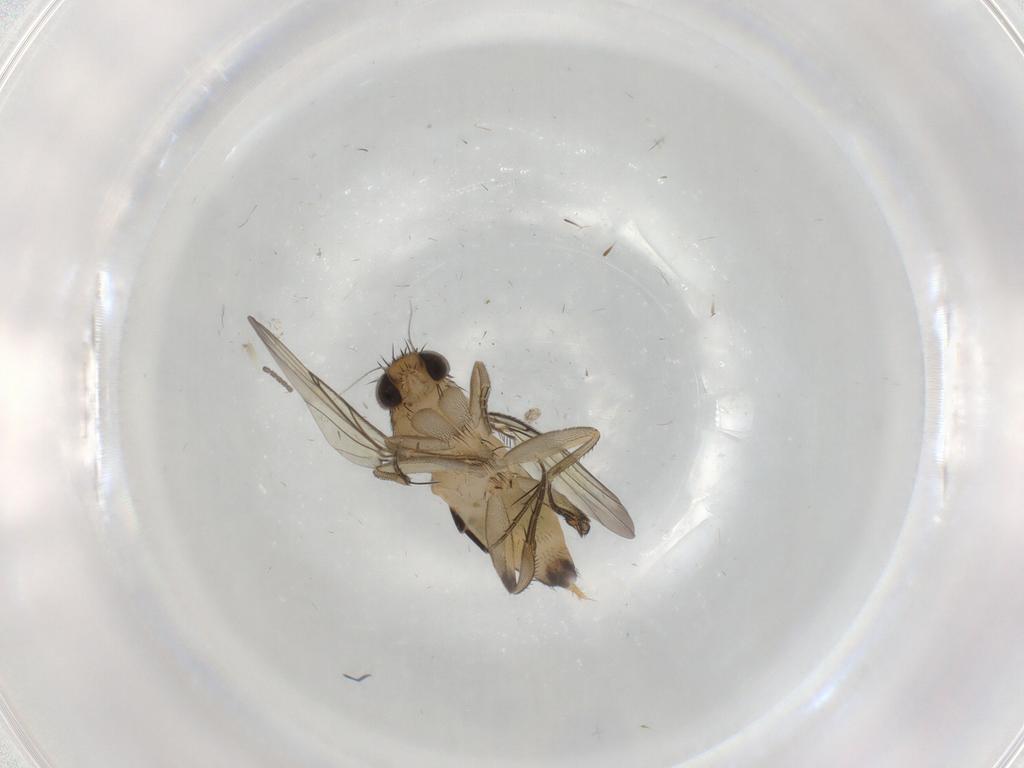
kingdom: Animalia
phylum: Arthropoda
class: Insecta
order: Diptera
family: Phoridae
